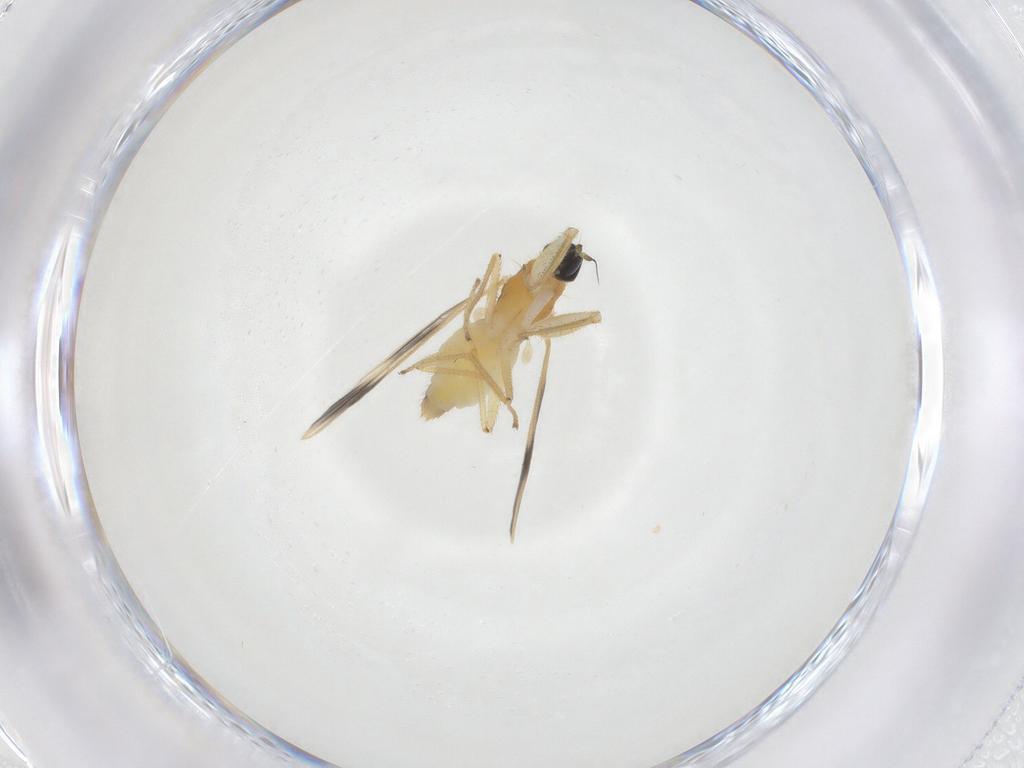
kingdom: Animalia
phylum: Arthropoda
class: Insecta
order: Diptera
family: Empididae
